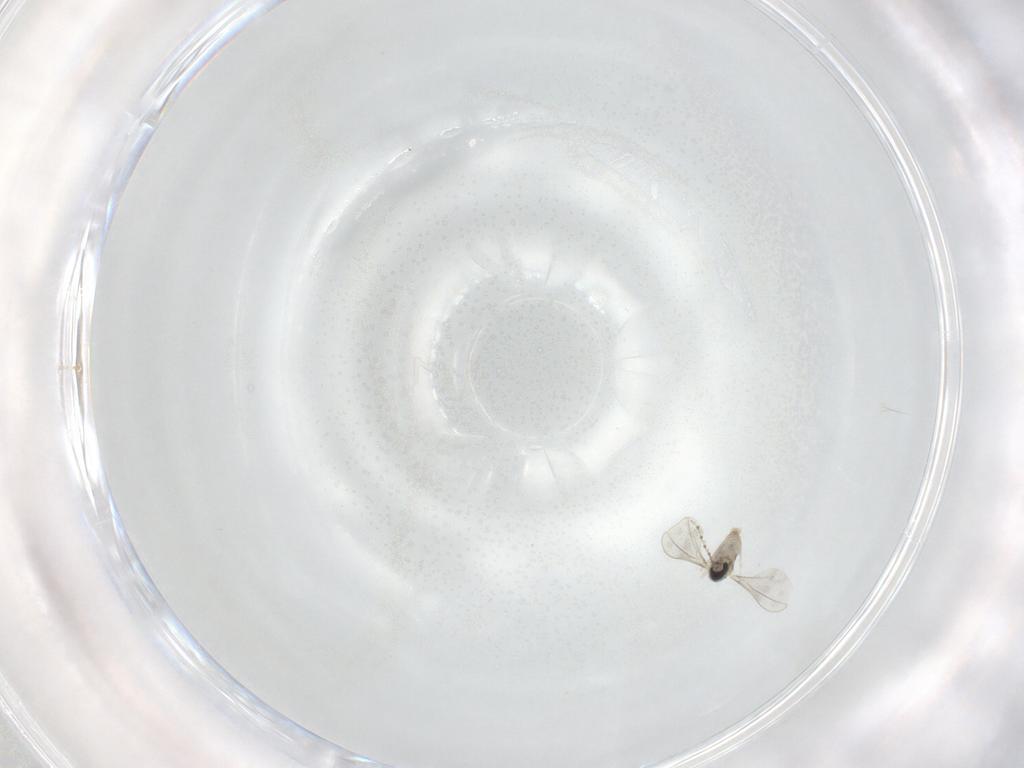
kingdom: Animalia
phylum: Arthropoda
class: Insecta
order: Diptera
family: Cecidomyiidae
